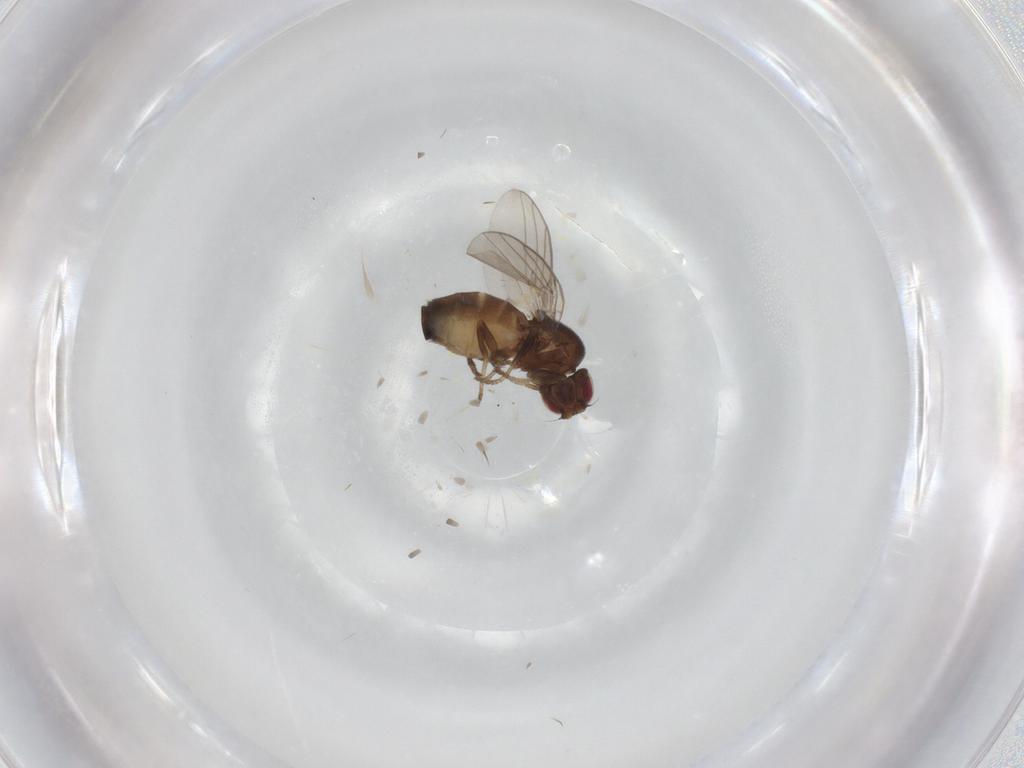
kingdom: Animalia
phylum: Arthropoda
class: Insecta
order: Diptera
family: Chloropidae
